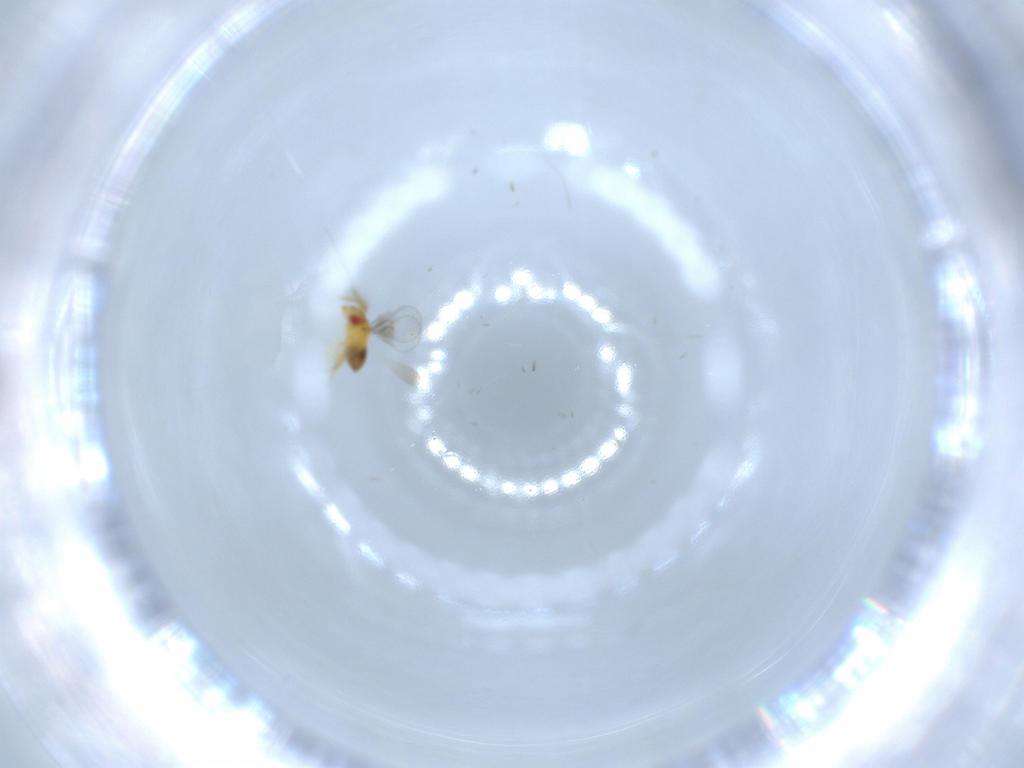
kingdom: Animalia
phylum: Arthropoda
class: Insecta
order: Hymenoptera
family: Trichogrammatidae
